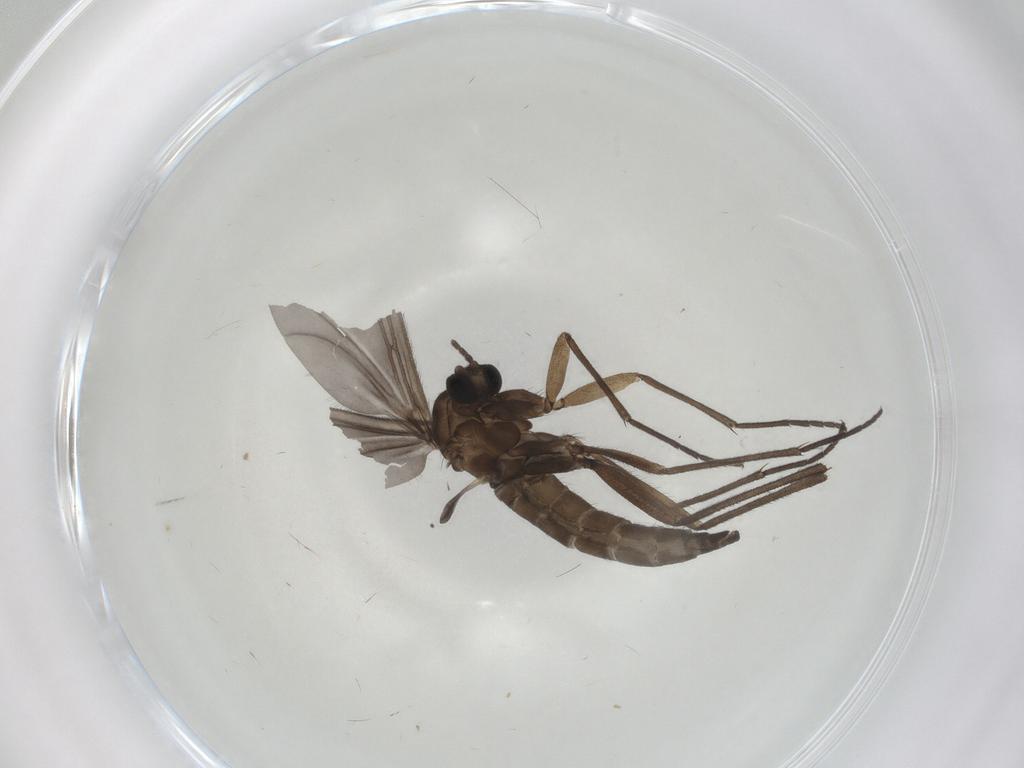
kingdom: Animalia
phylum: Arthropoda
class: Insecta
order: Diptera
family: Sciaridae
